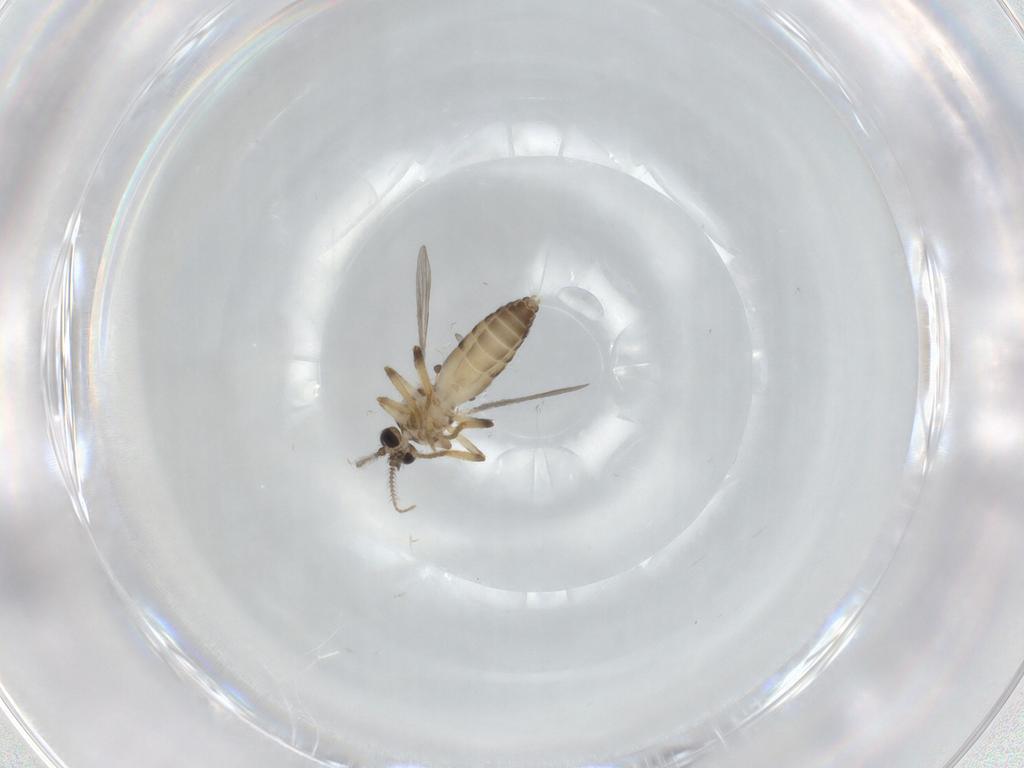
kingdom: Animalia
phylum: Arthropoda
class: Insecta
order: Diptera
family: Ceratopogonidae
